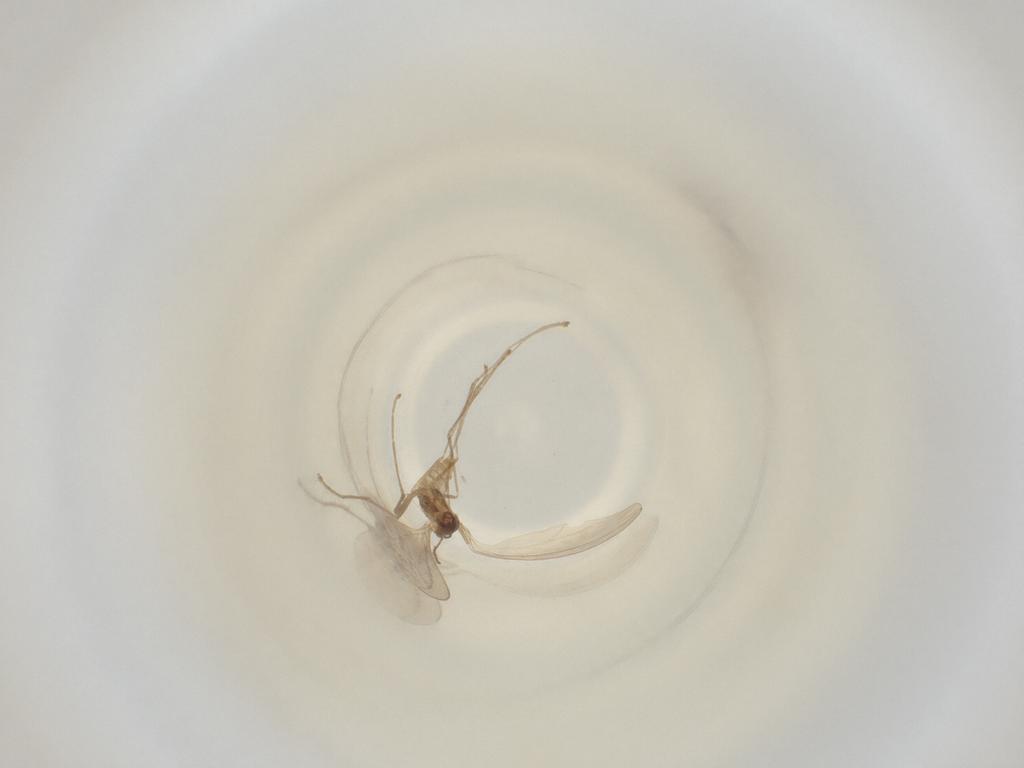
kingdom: Animalia
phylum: Arthropoda
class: Insecta
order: Diptera
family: Cecidomyiidae
